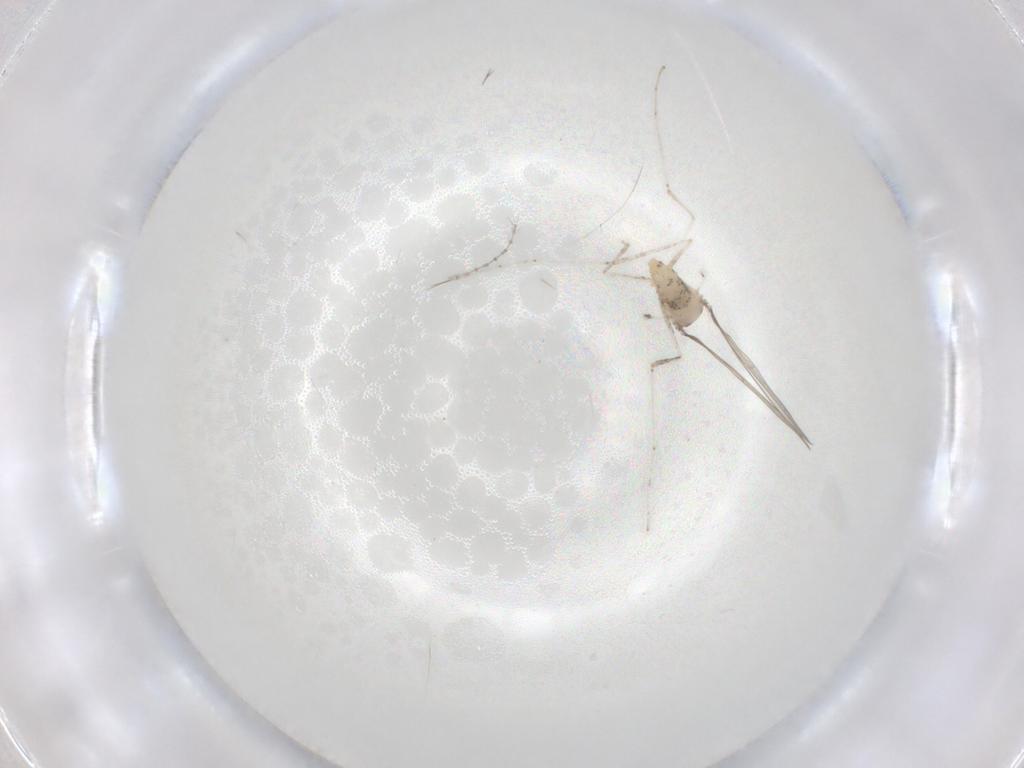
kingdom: Animalia
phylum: Arthropoda
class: Insecta
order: Diptera
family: Cecidomyiidae
